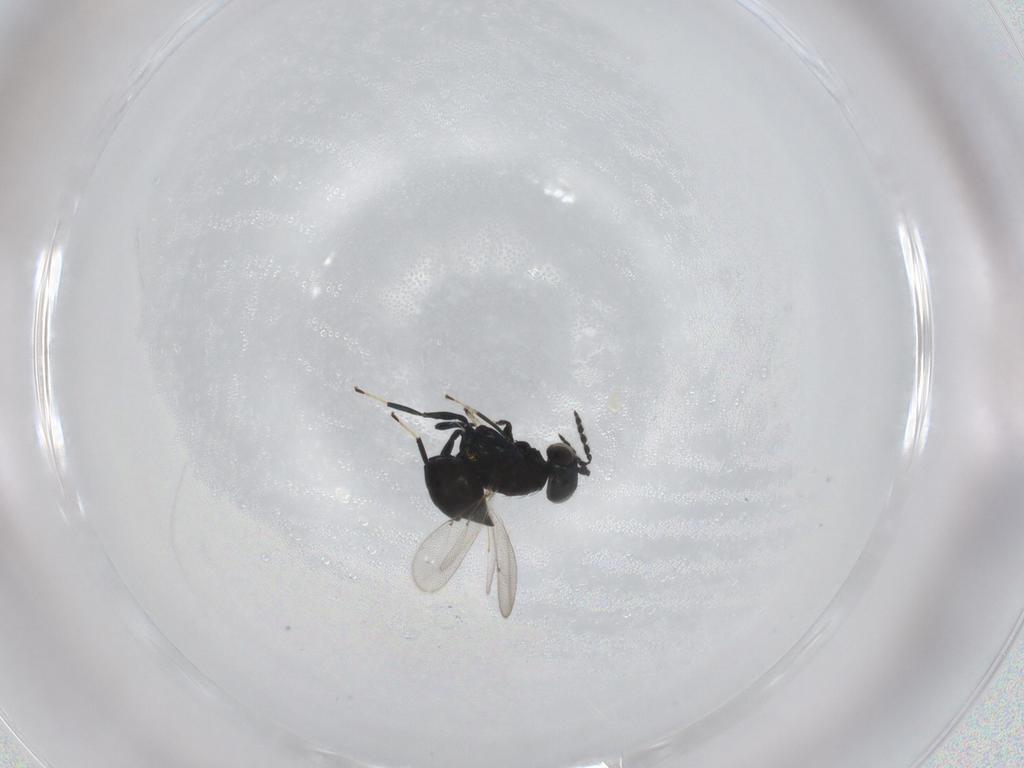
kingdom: Animalia
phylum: Arthropoda
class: Insecta
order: Hymenoptera
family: Eulophidae
